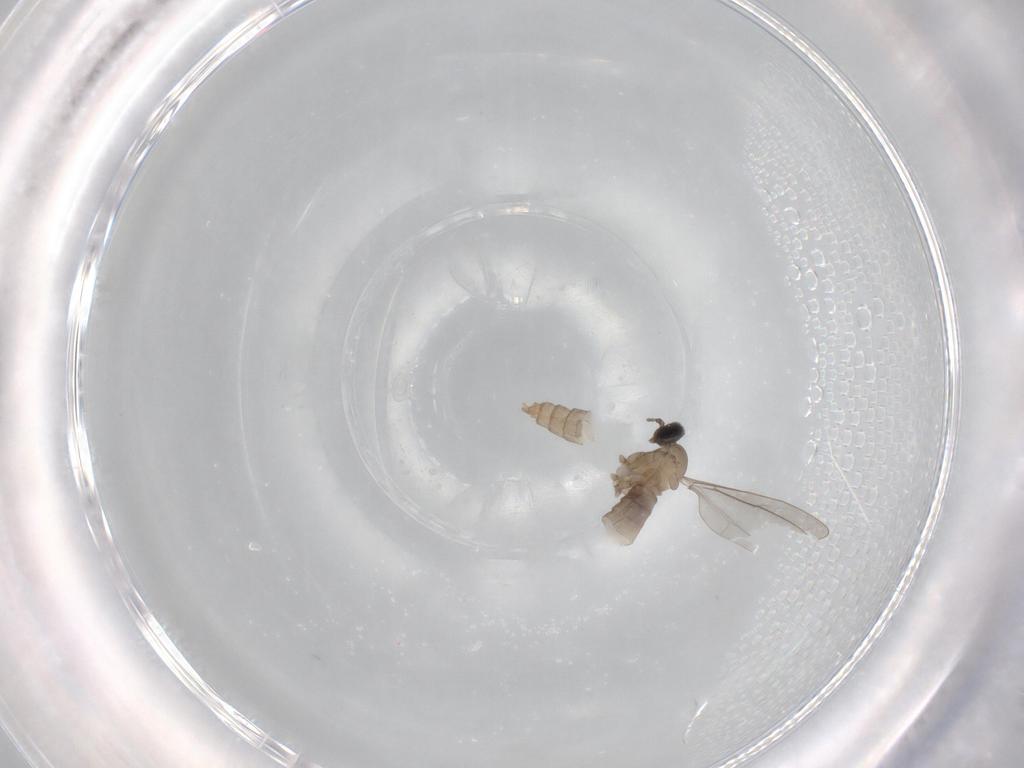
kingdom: Animalia
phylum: Arthropoda
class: Insecta
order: Diptera
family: Cecidomyiidae
